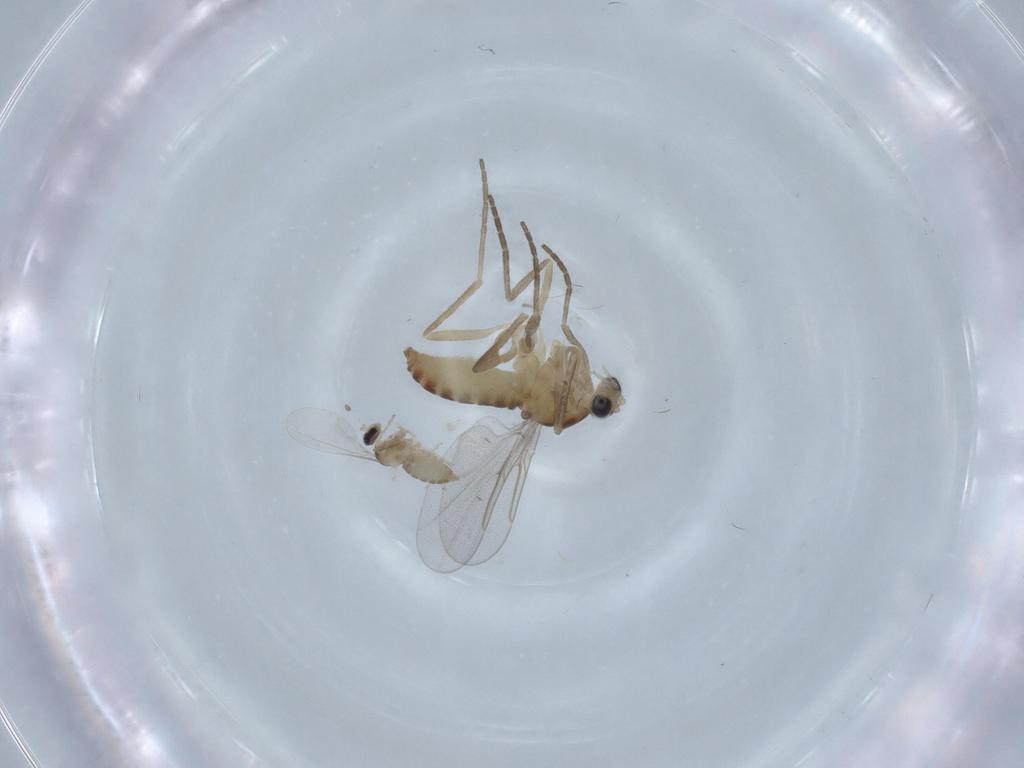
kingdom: Animalia
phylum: Arthropoda
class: Insecta
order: Diptera
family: Chironomidae
